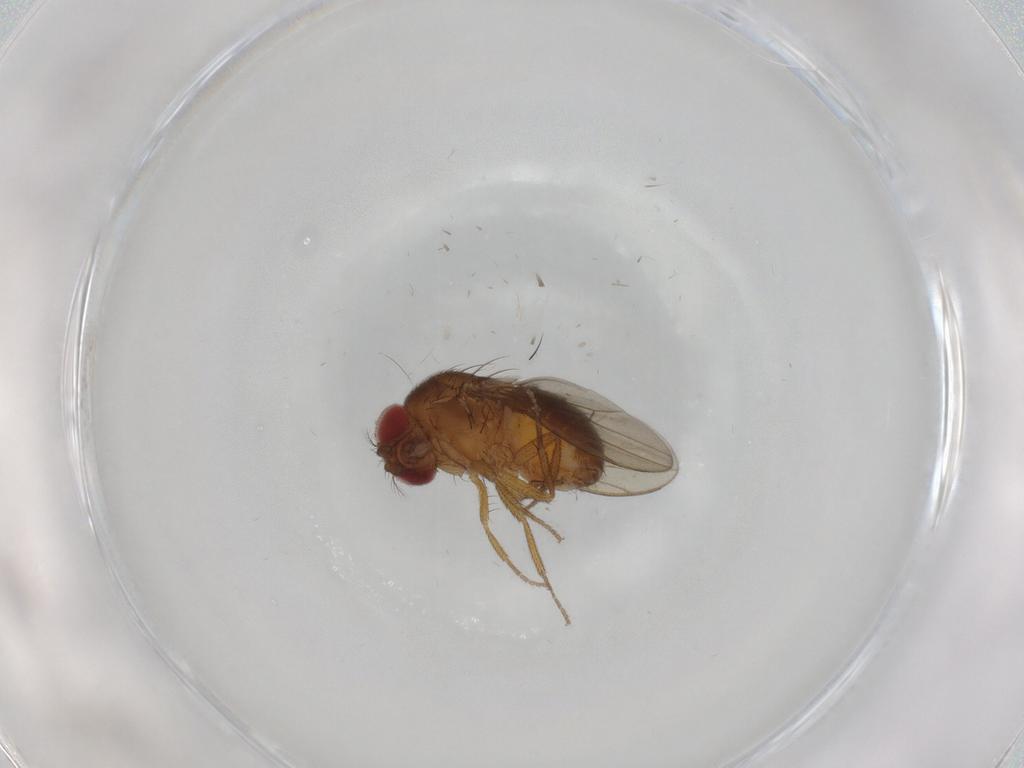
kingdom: Animalia
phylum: Arthropoda
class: Insecta
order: Diptera
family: Drosophilidae
